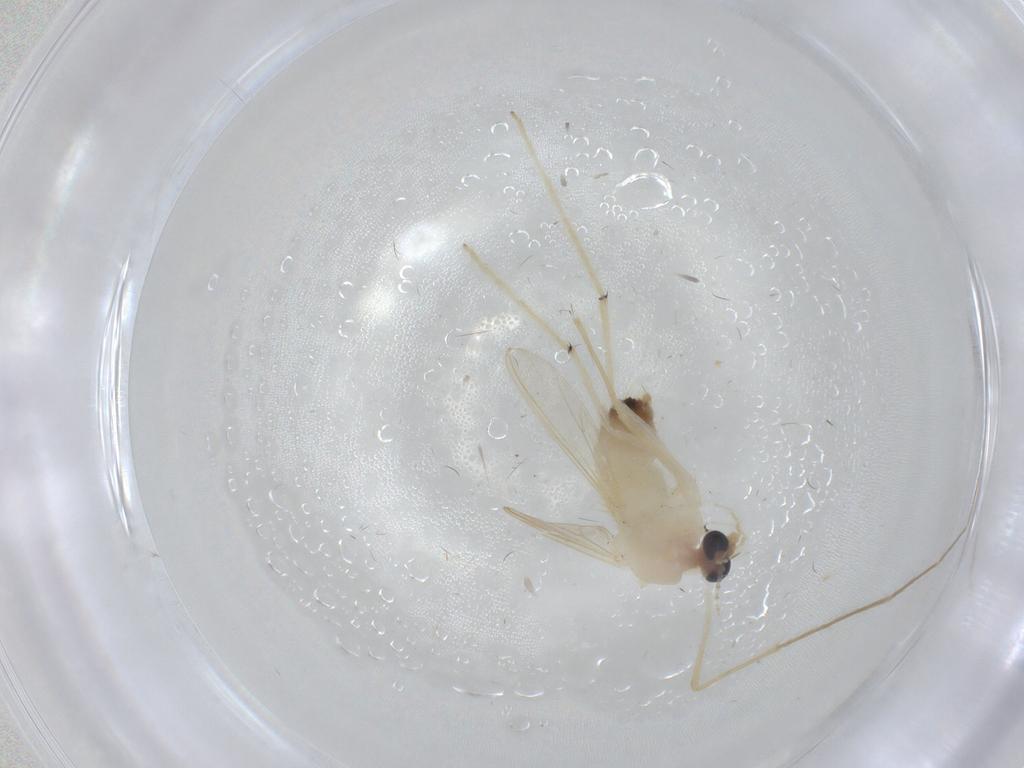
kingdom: Animalia
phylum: Arthropoda
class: Insecta
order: Diptera
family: Chironomidae
